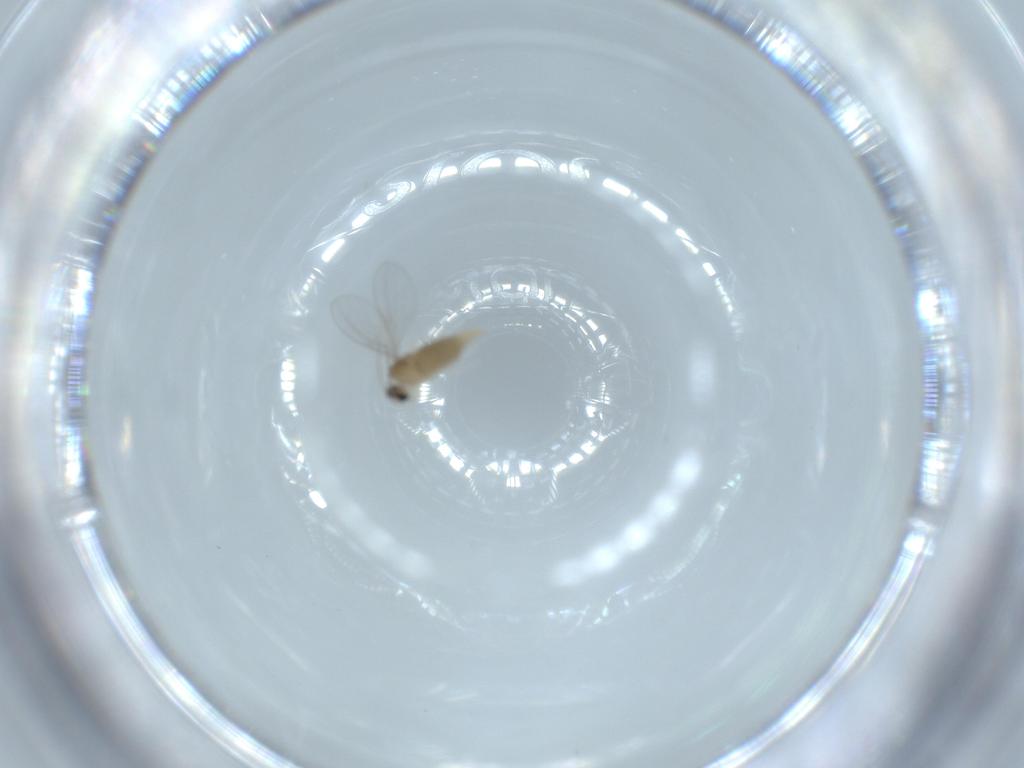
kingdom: Animalia
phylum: Arthropoda
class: Insecta
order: Diptera
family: Cecidomyiidae
